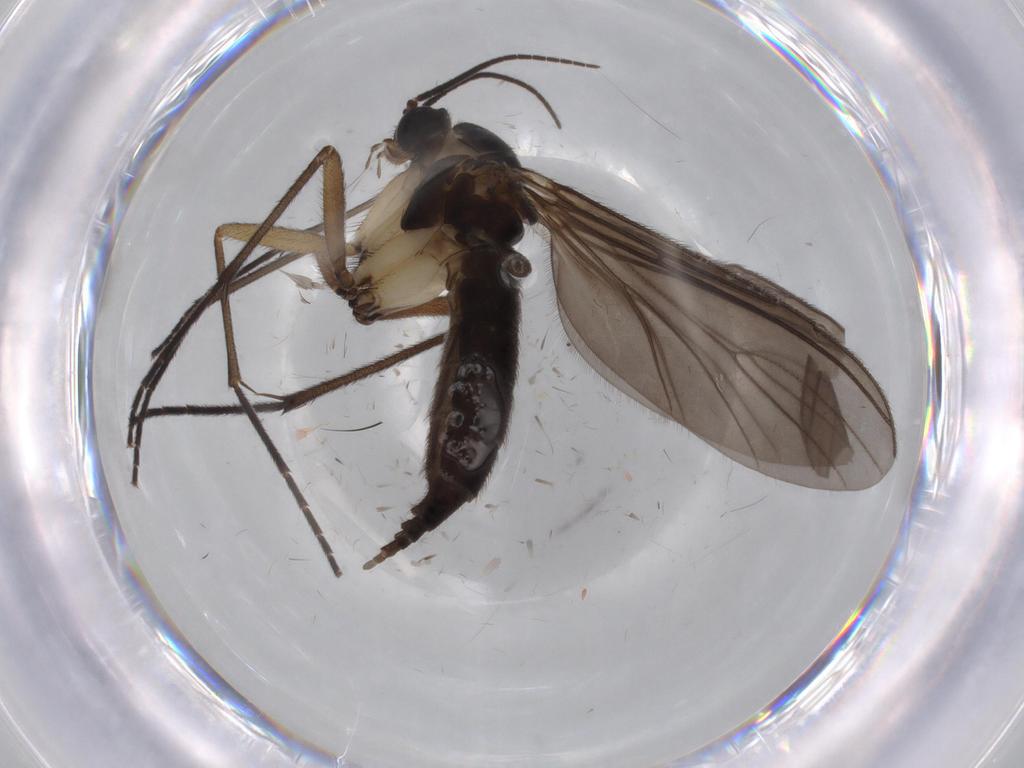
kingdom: Animalia
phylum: Arthropoda
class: Insecta
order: Diptera
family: Sciaridae
